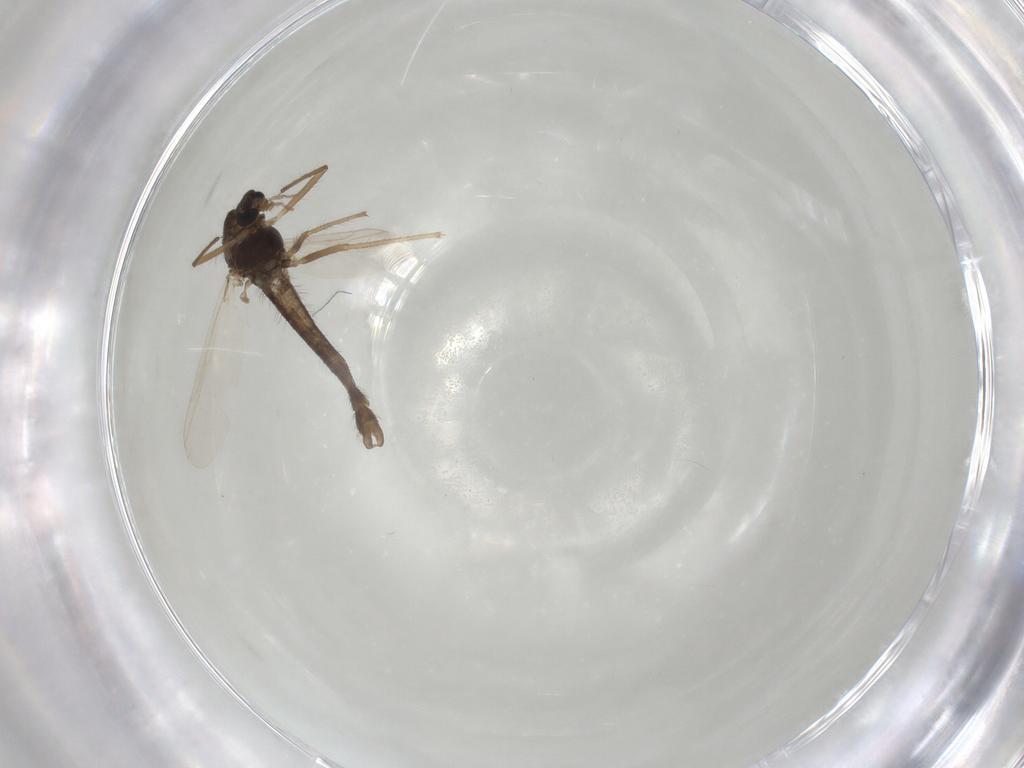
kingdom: Animalia
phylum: Arthropoda
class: Insecta
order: Diptera
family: Chironomidae
